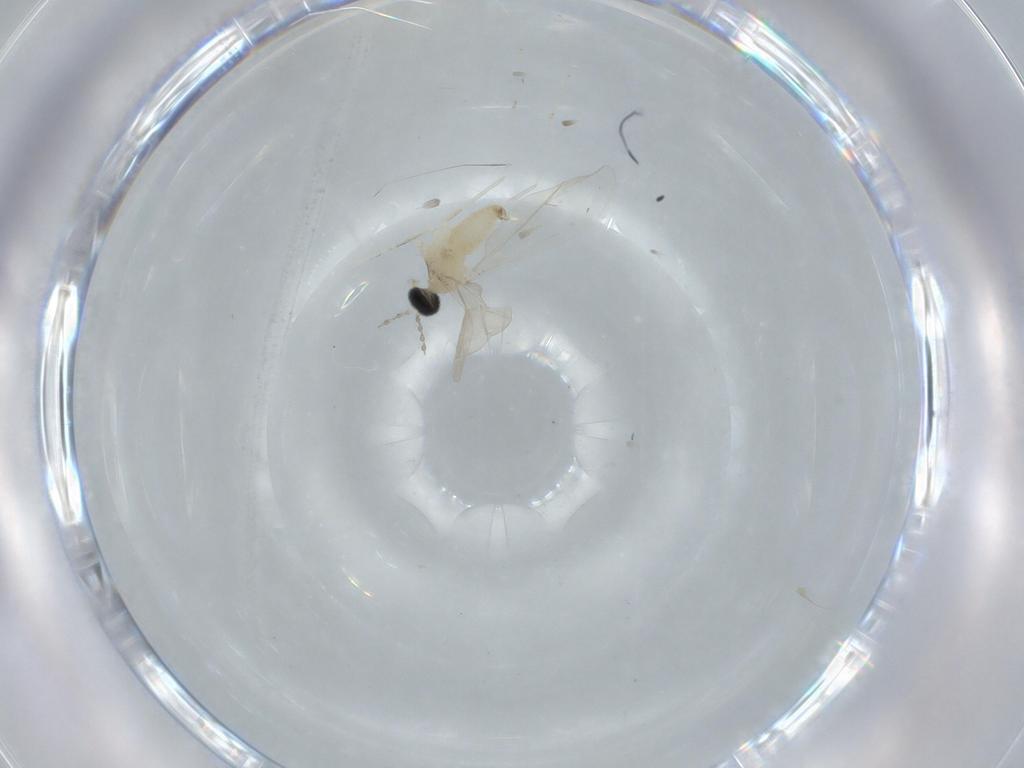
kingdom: Animalia
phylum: Arthropoda
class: Insecta
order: Diptera
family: Cecidomyiidae
